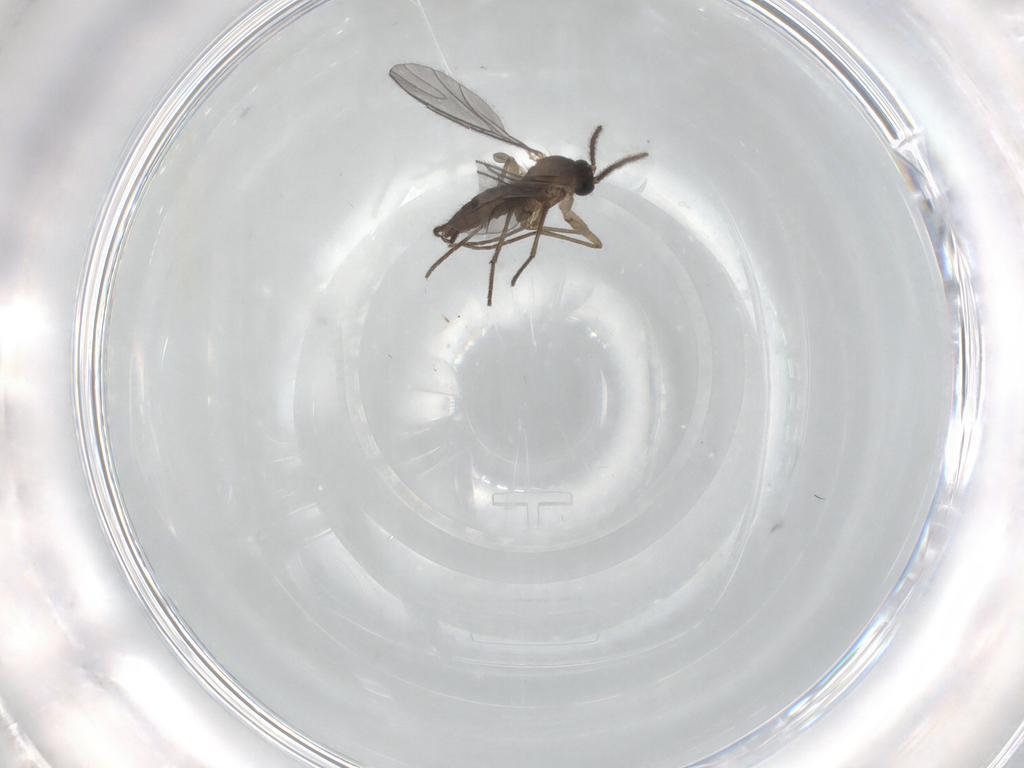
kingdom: Animalia
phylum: Arthropoda
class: Insecta
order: Diptera
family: Sciaridae
